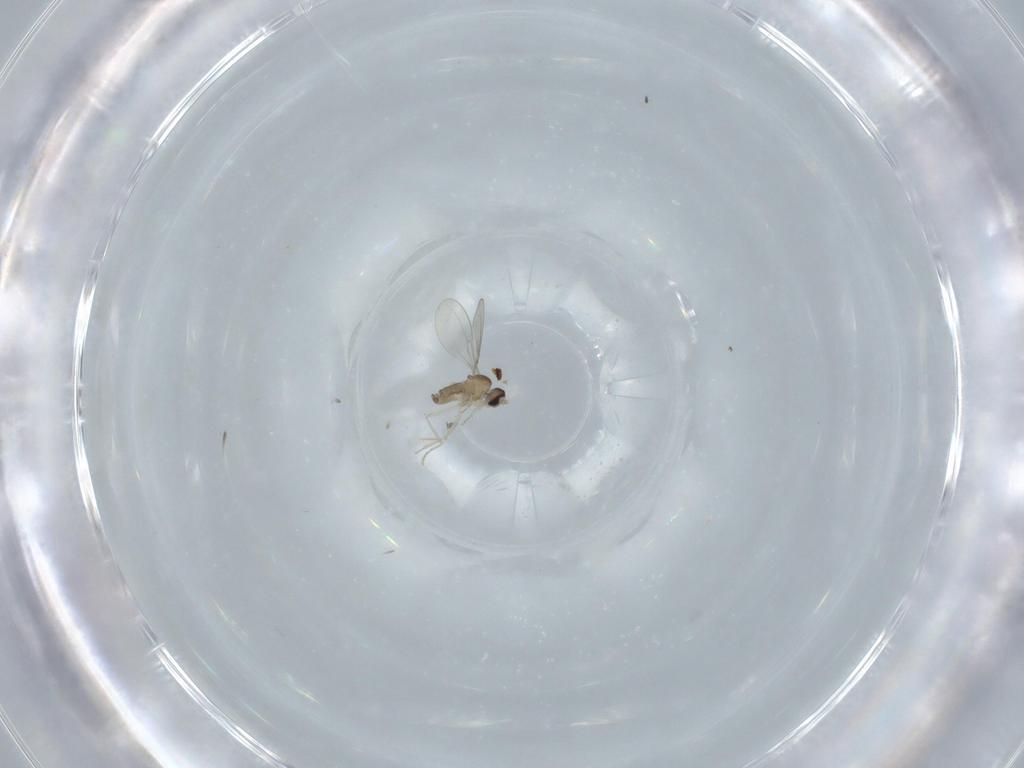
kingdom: Animalia
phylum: Arthropoda
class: Insecta
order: Diptera
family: Cecidomyiidae
